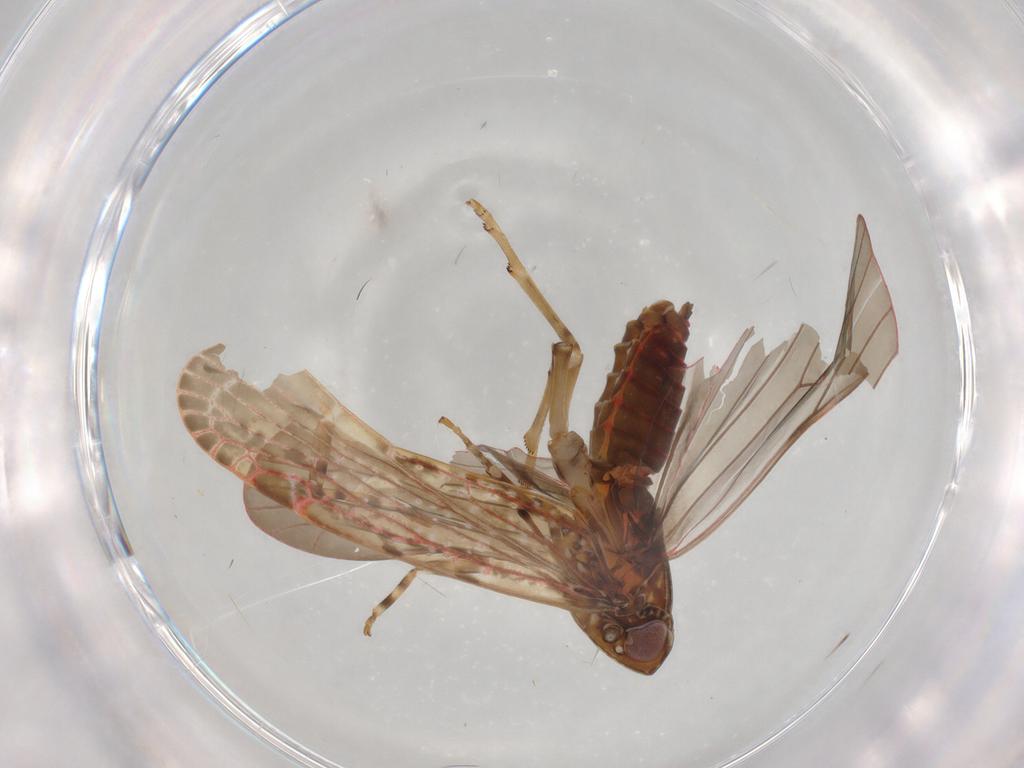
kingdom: Animalia
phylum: Arthropoda
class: Insecta
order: Hemiptera
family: Achilidae
